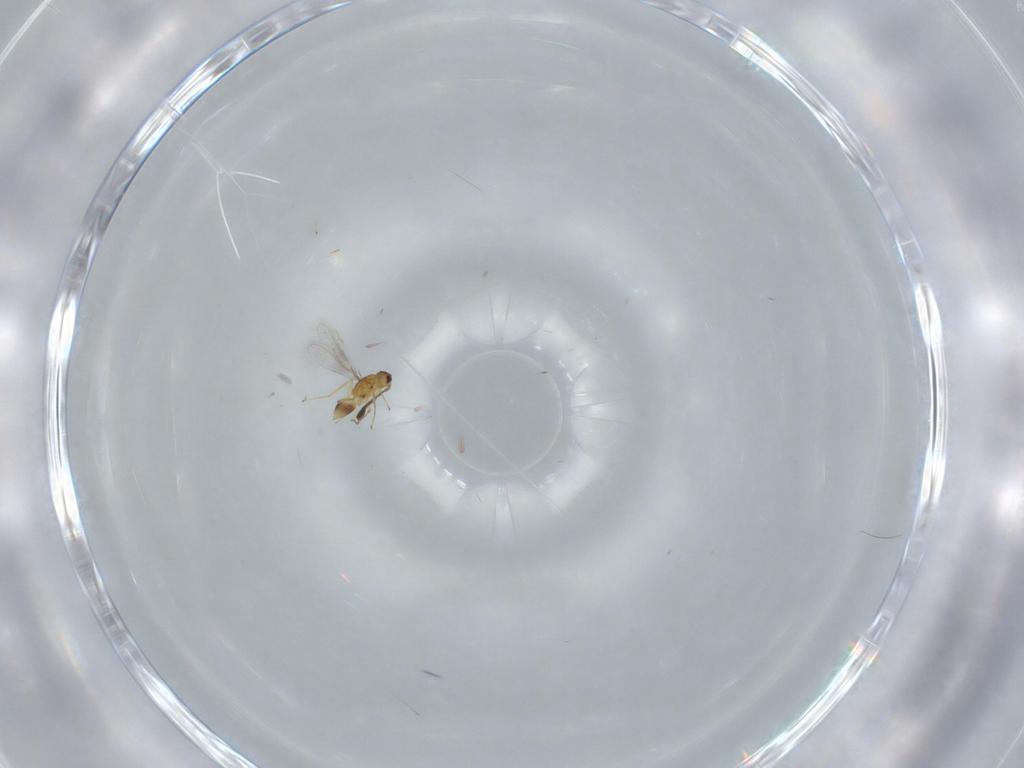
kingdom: Animalia
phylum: Arthropoda
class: Insecta
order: Hymenoptera
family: Mymaridae
